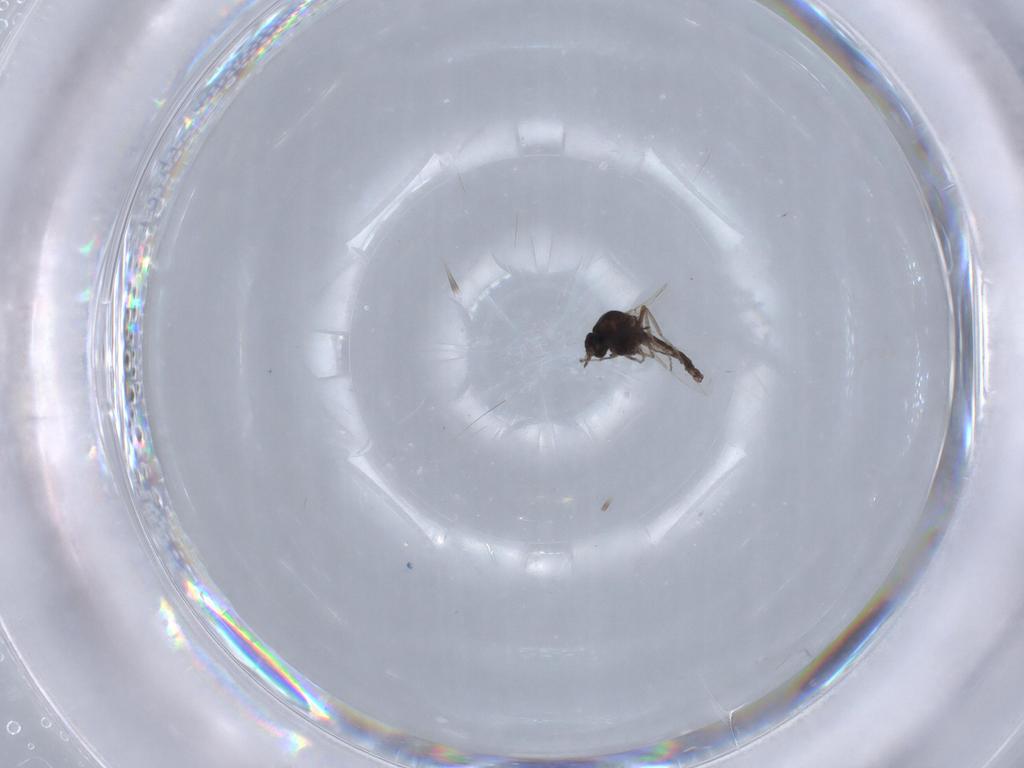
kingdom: Animalia
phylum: Arthropoda
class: Insecta
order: Diptera
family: Ceratopogonidae
